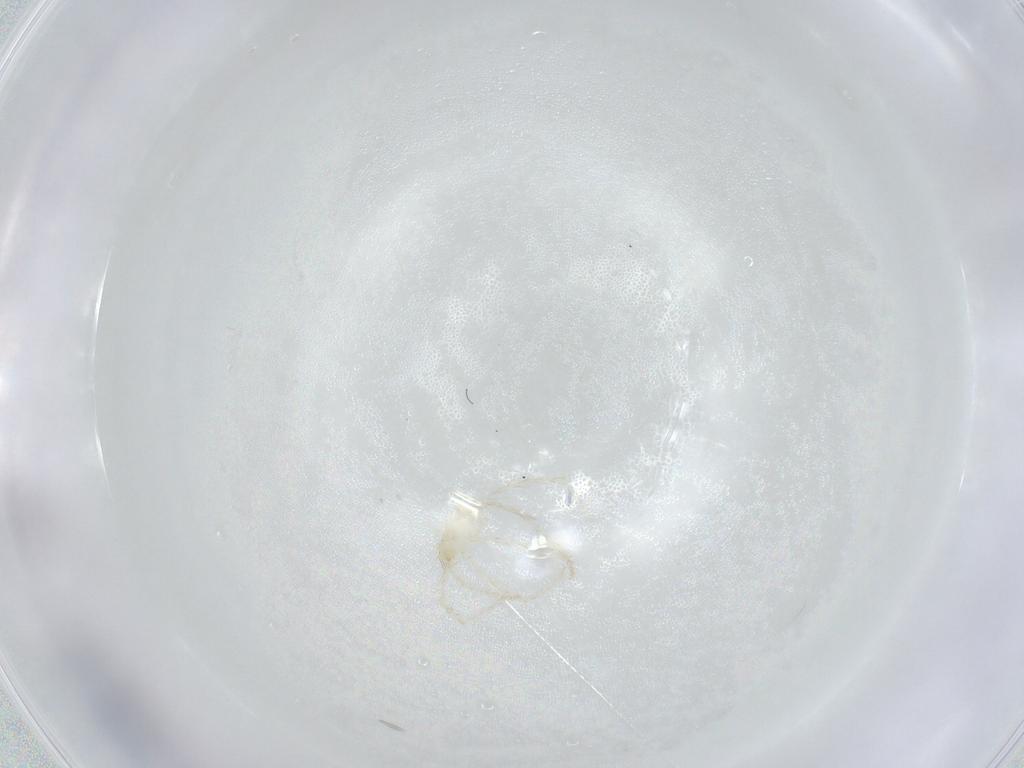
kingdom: Animalia
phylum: Arthropoda
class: Arachnida
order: Trombidiformes
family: Erythraeidae
